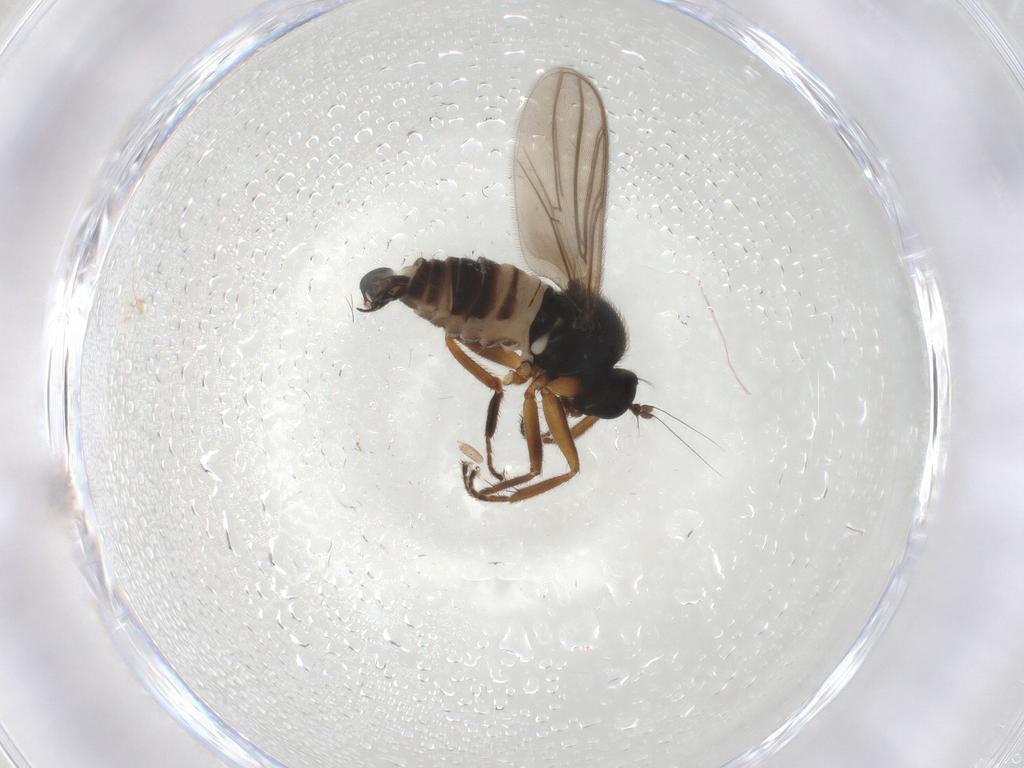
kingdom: Animalia
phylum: Arthropoda
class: Insecta
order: Diptera
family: Hybotidae
